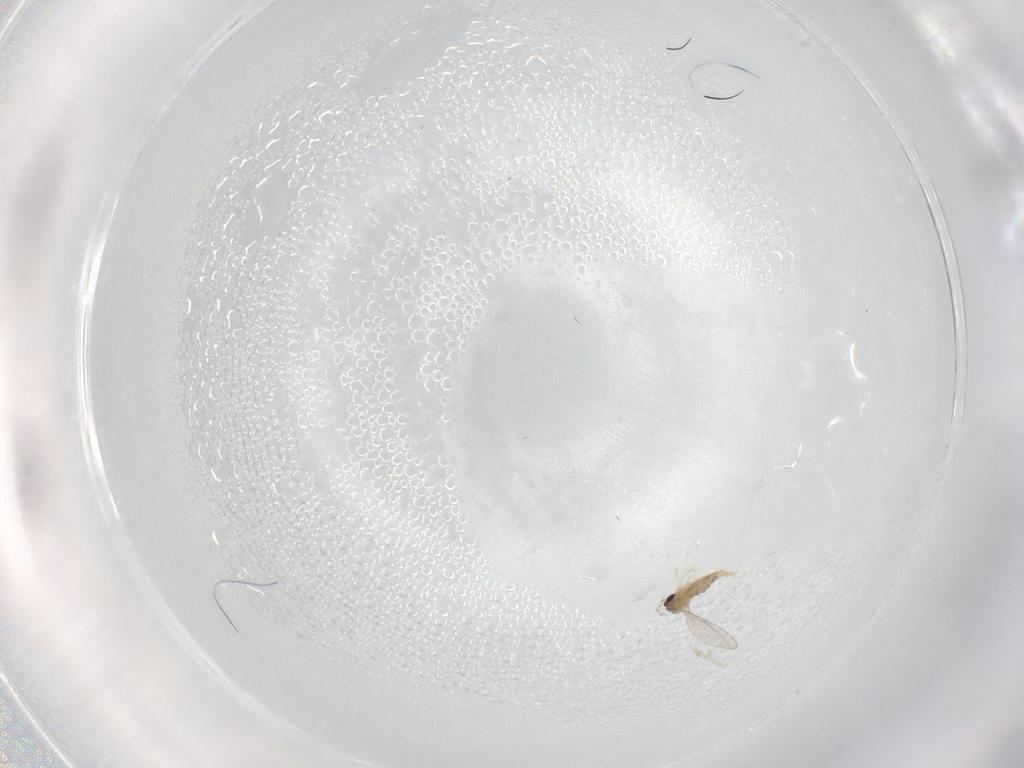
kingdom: Animalia
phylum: Arthropoda
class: Insecta
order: Diptera
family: Cecidomyiidae
